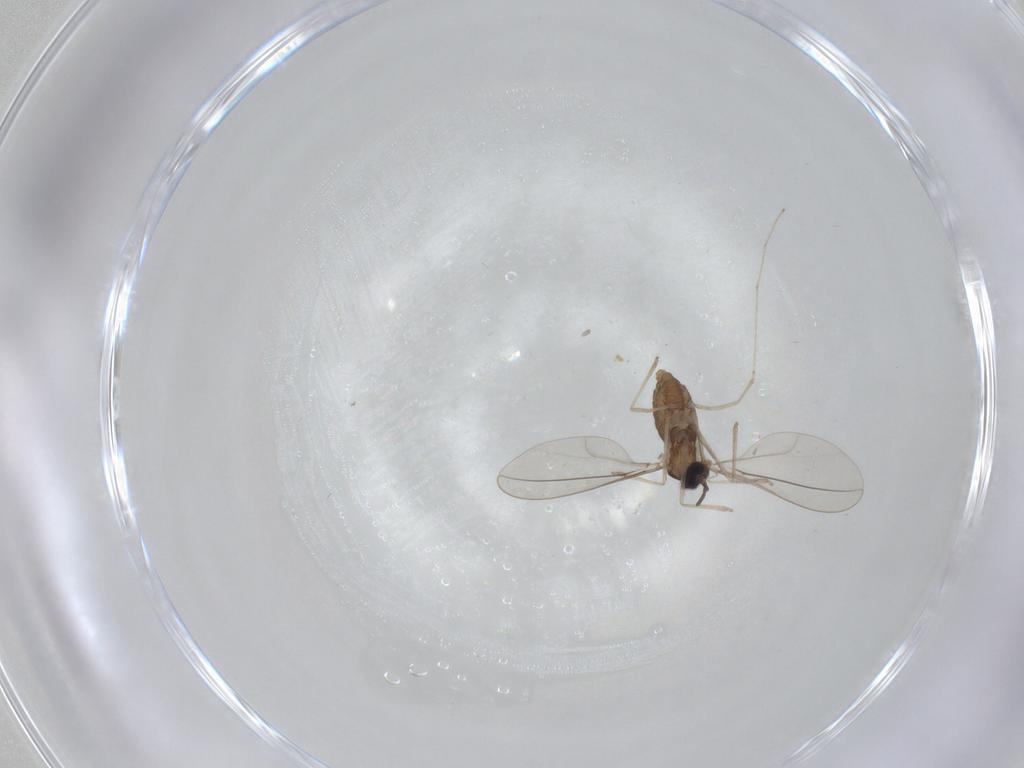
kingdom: Animalia
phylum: Arthropoda
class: Insecta
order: Diptera
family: Cecidomyiidae
